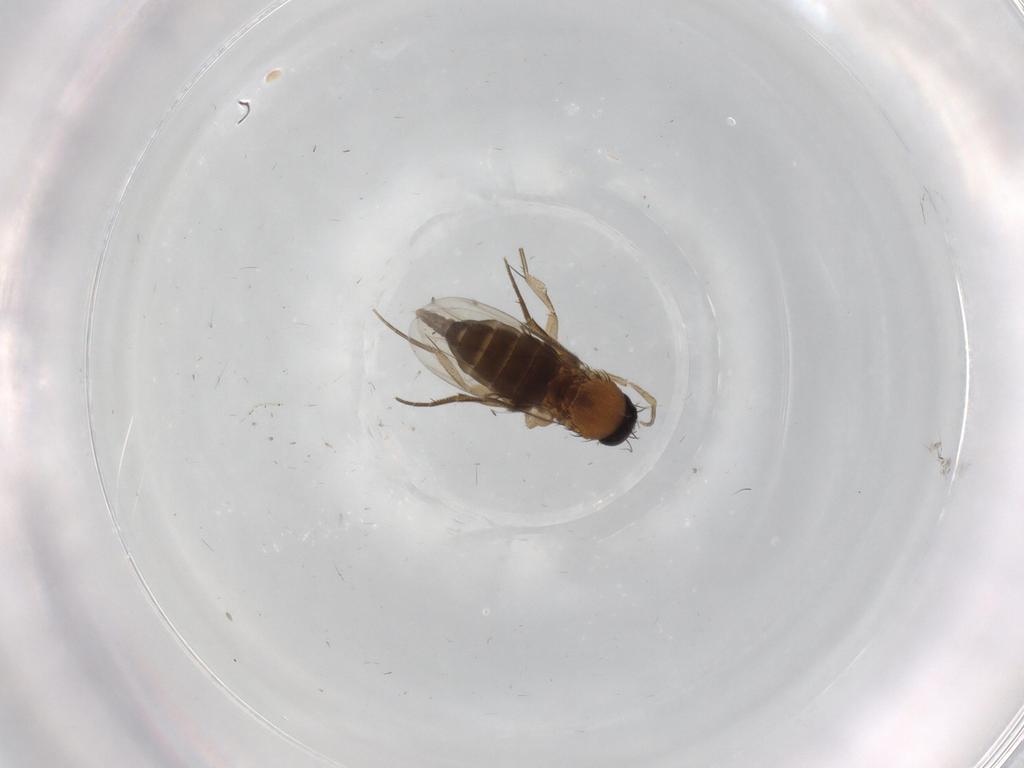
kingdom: Animalia
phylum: Arthropoda
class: Insecta
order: Diptera
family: Phoridae
